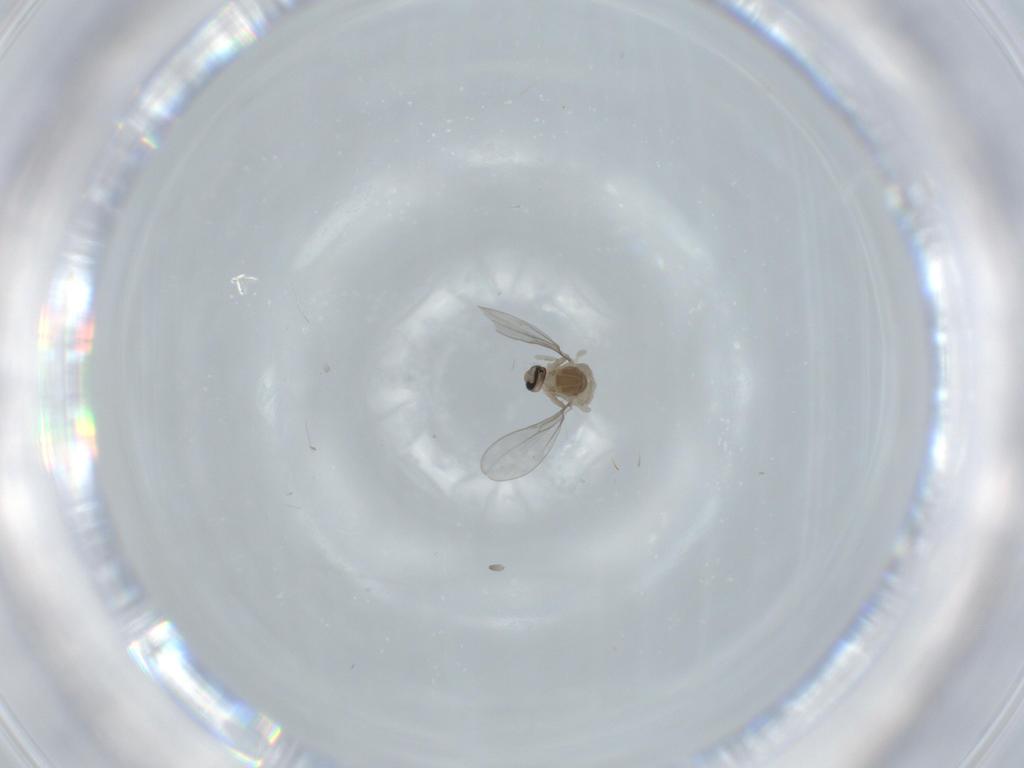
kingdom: Animalia
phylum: Arthropoda
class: Insecta
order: Diptera
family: Cecidomyiidae
